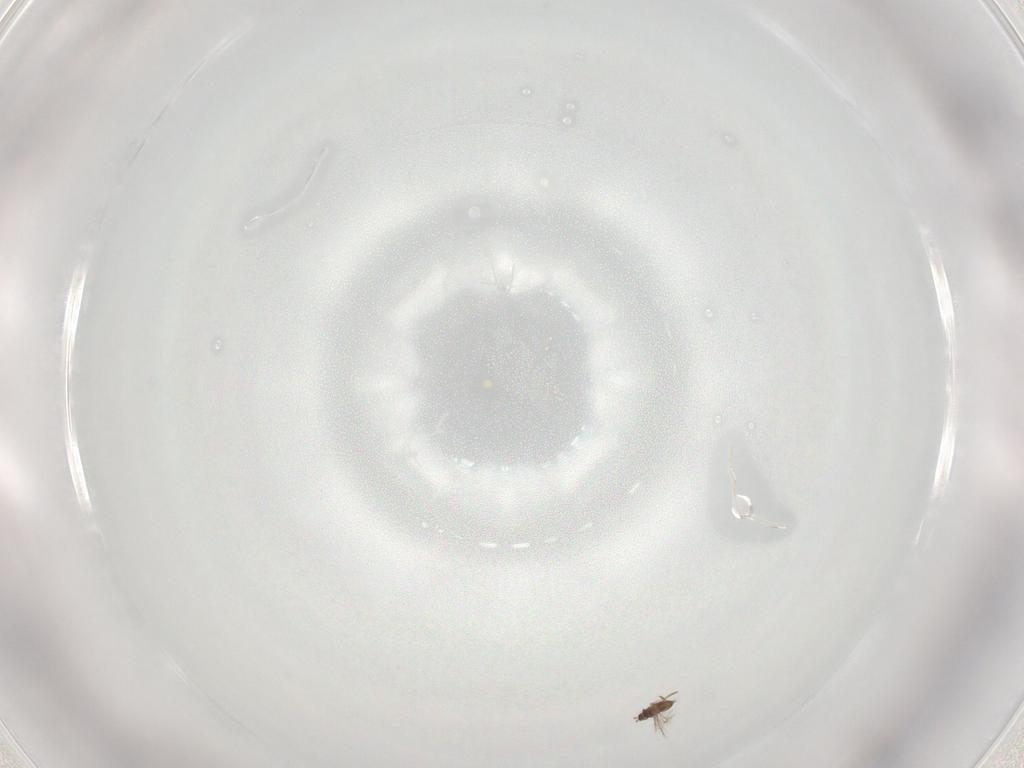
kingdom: Animalia
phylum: Arthropoda
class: Insecta
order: Hymenoptera
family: Mymaridae
